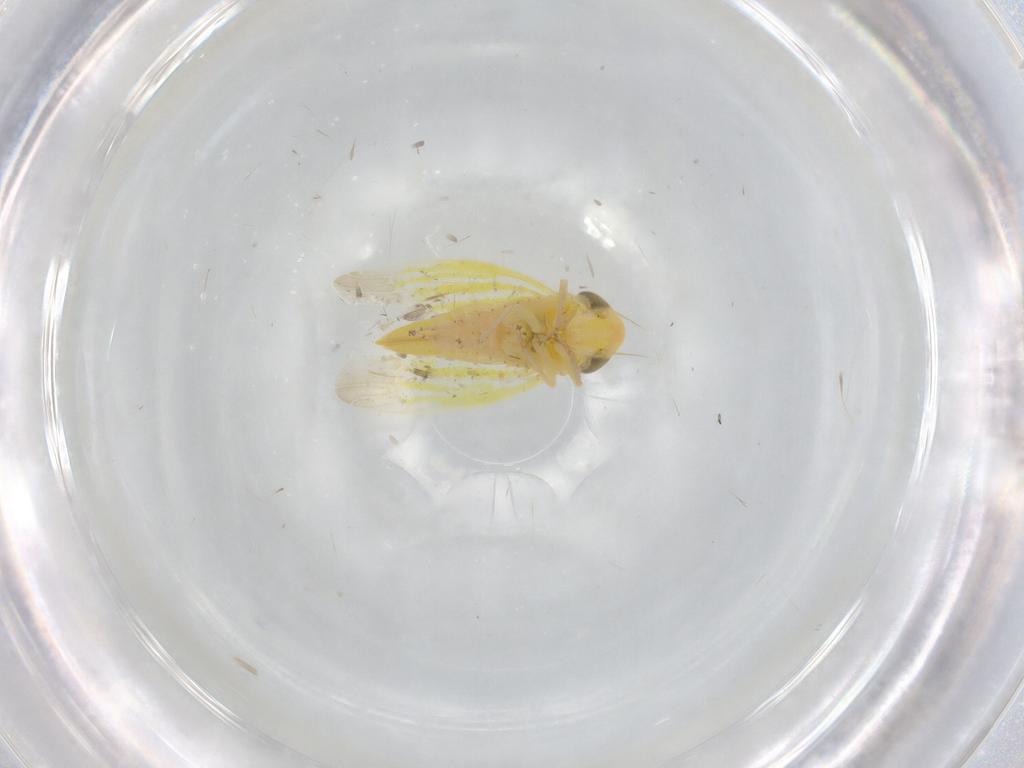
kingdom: Animalia
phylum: Arthropoda
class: Insecta
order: Hemiptera
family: Cicadellidae
